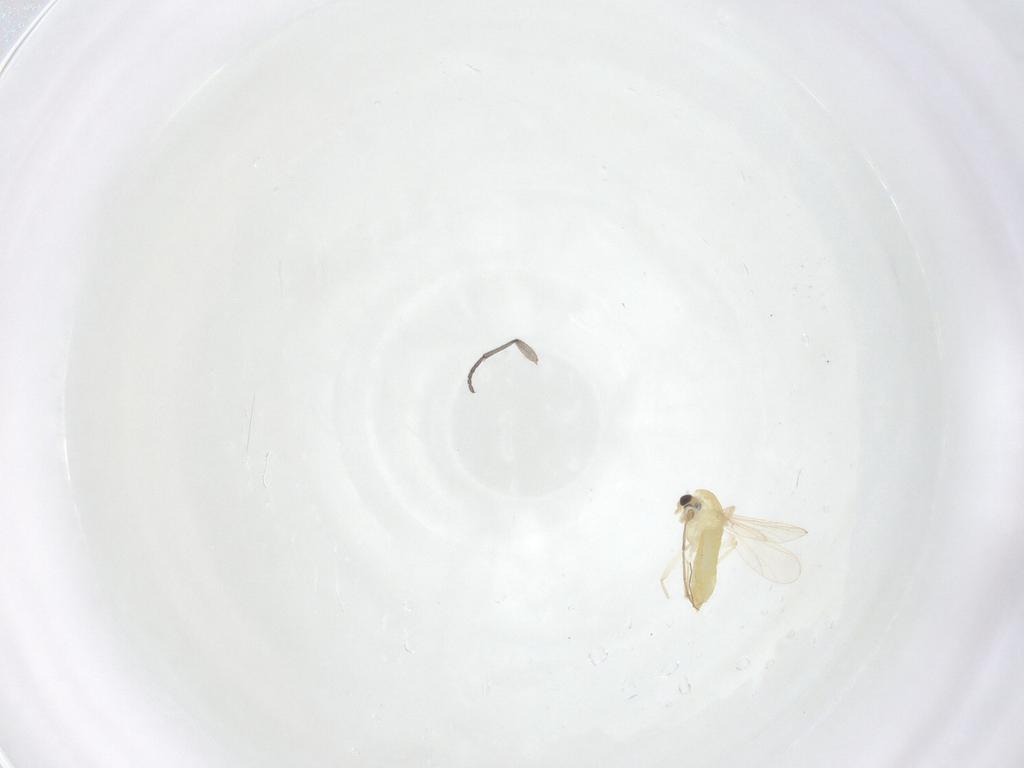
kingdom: Animalia
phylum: Arthropoda
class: Insecta
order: Diptera
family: Chironomidae
